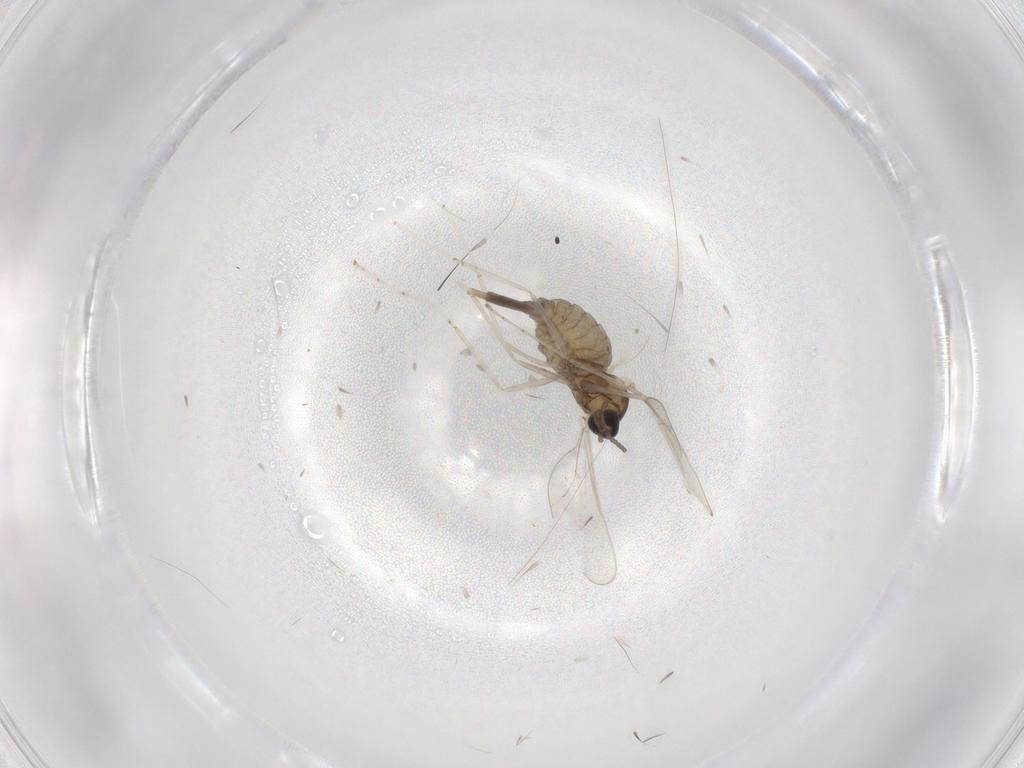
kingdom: Animalia
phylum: Arthropoda
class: Insecta
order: Diptera
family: Cecidomyiidae
